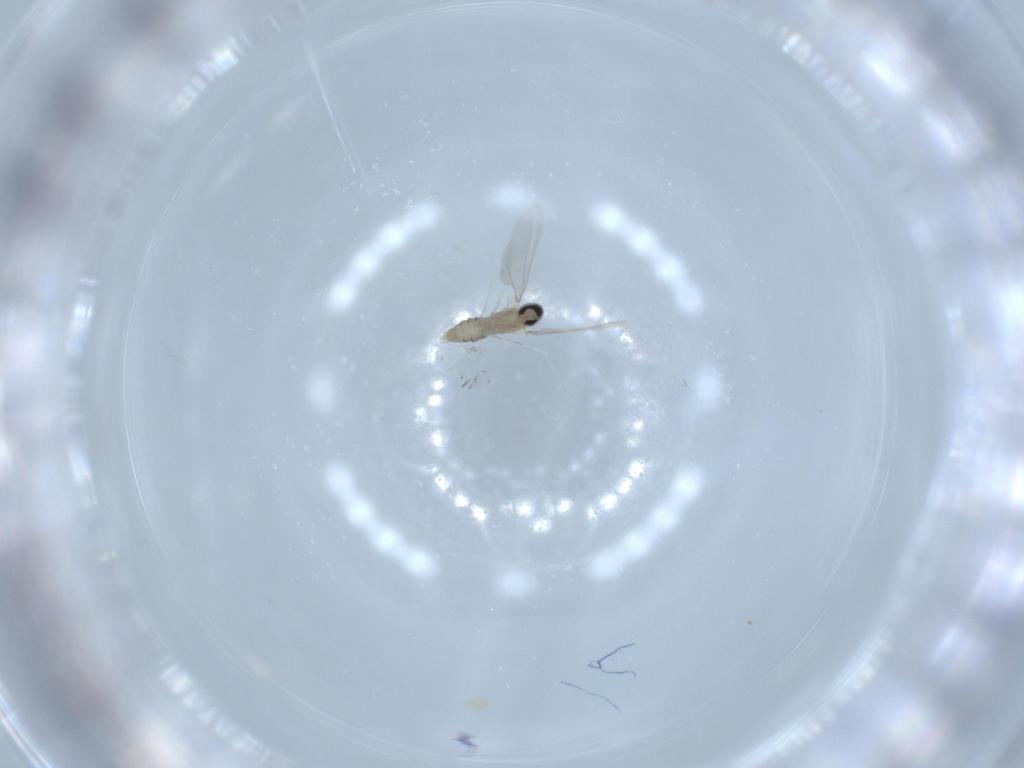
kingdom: Animalia
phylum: Arthropoda
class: Insecta
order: Diptera
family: Cecidomyiidae
